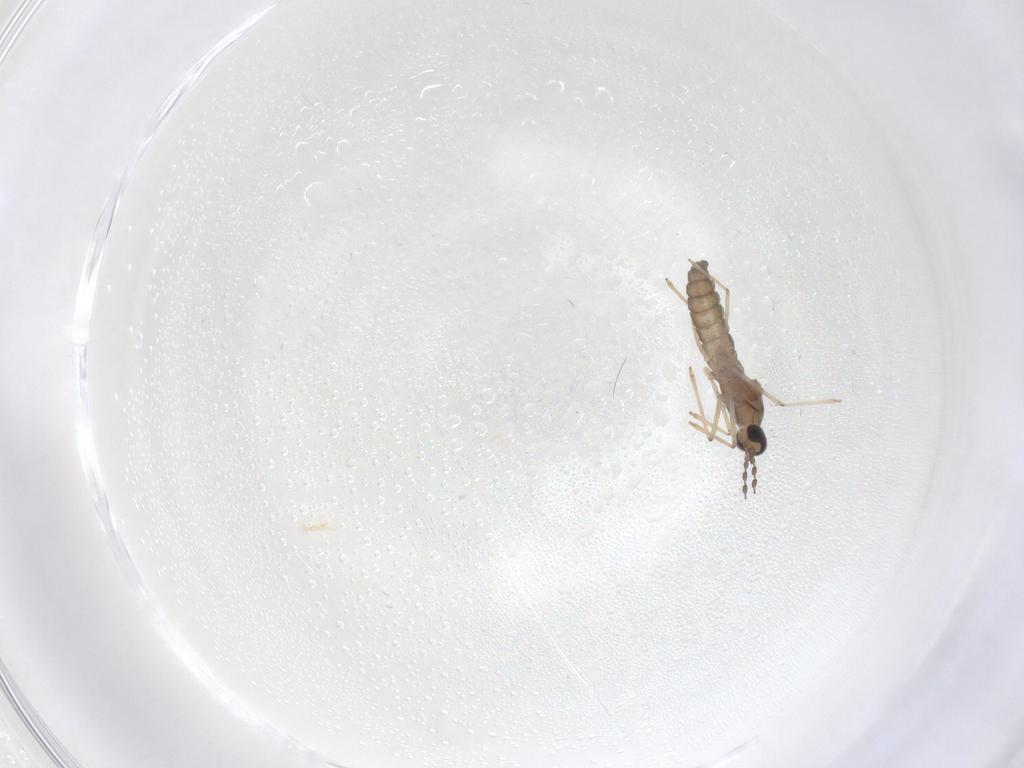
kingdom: Animalia
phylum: Arthropoda
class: Insecta
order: Diptera
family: Cecidomyiidae
